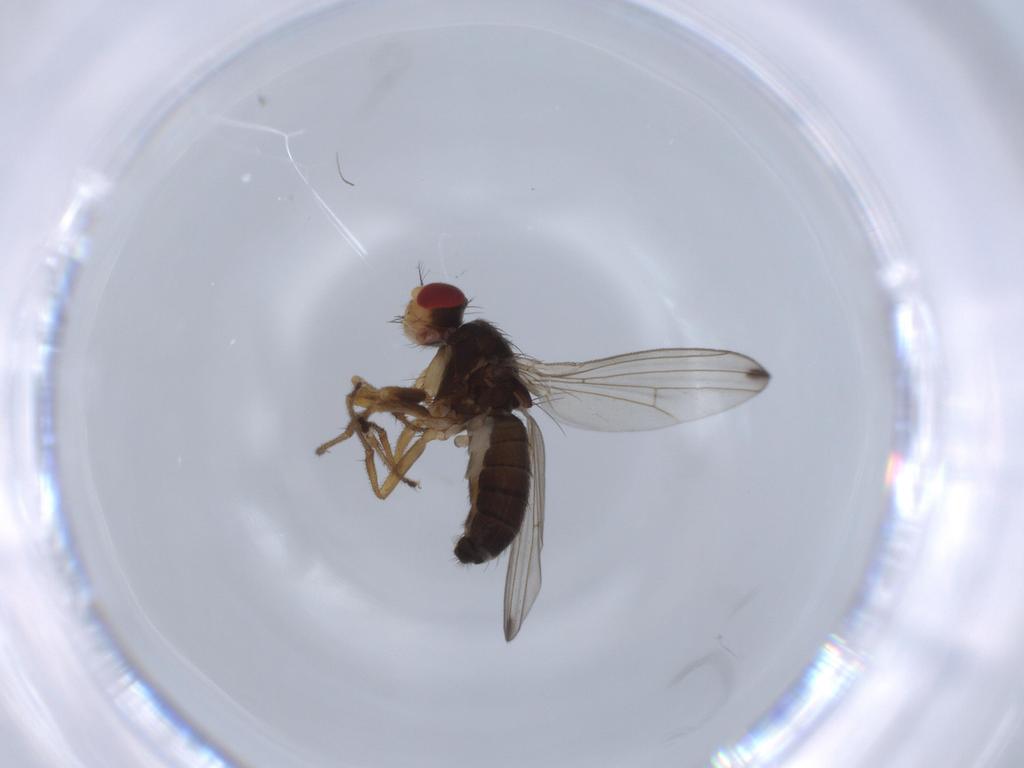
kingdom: Animalia
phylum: Arthropoda
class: Insecta
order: Diptera
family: Drosophilidae
